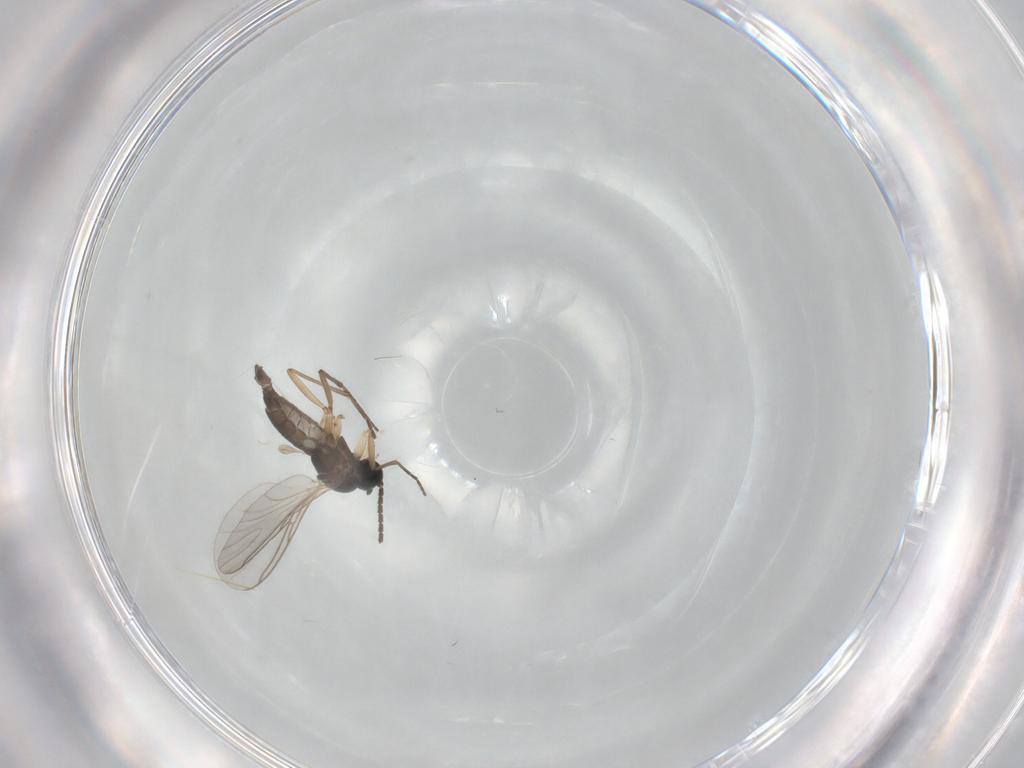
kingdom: Animalia
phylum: Arthropoda
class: Insecta
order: Diptera
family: Sciaridae
